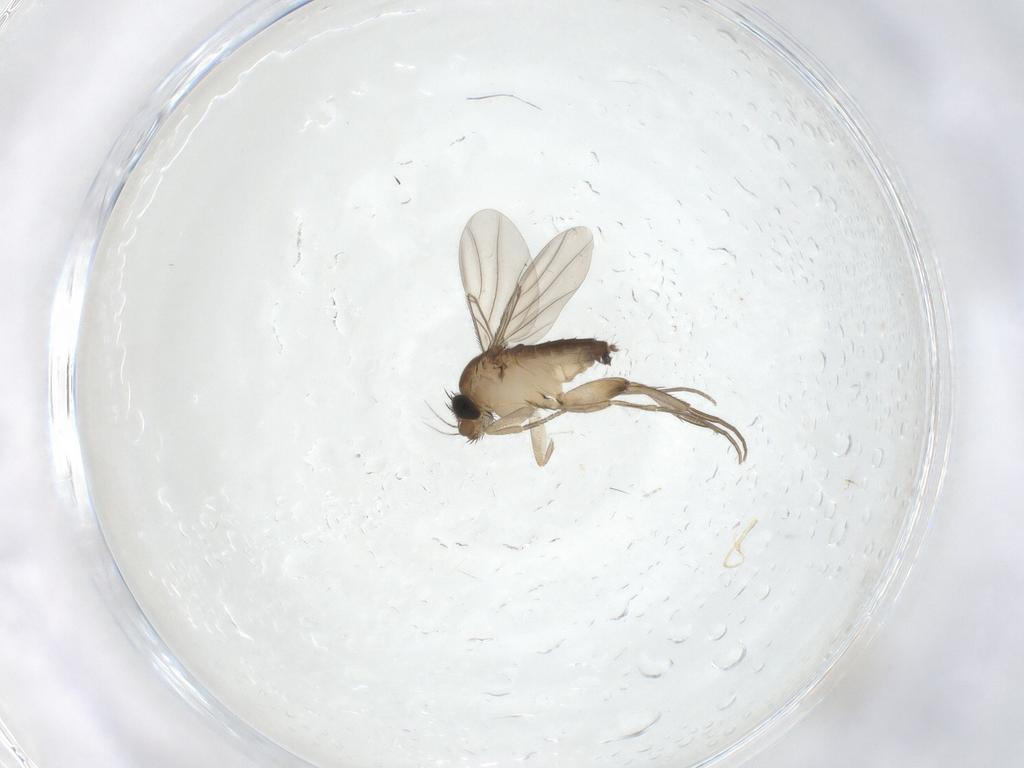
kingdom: Animalia
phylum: Arthropoda
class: Insecta
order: Diptera
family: Phoridae
